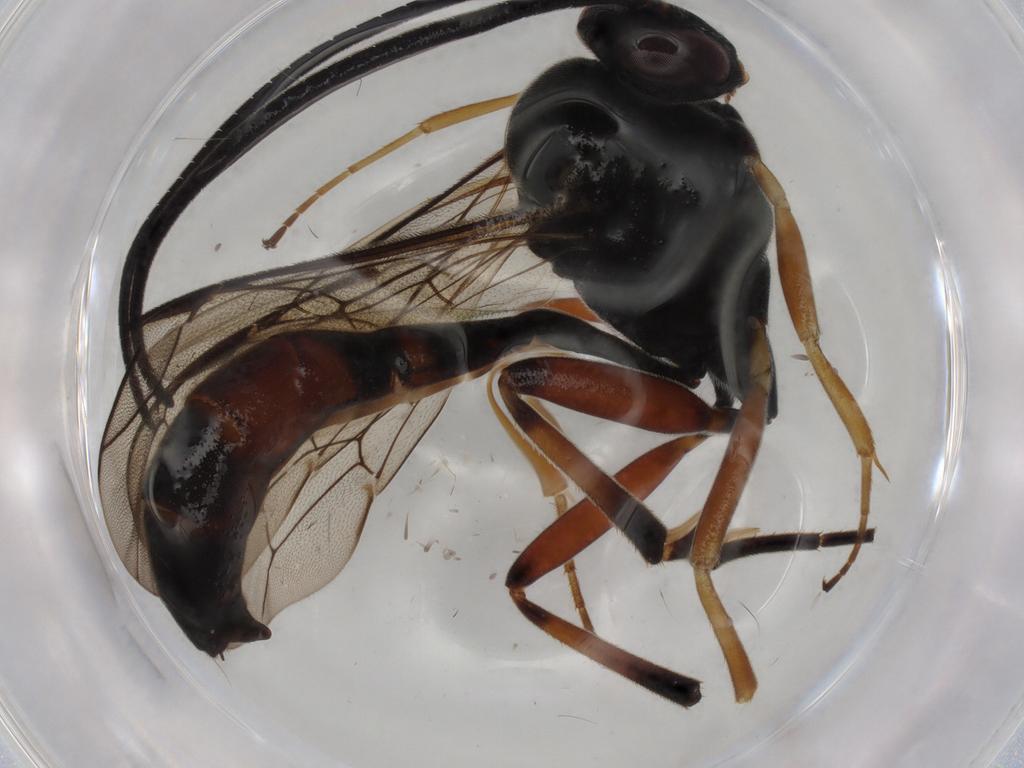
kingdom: Animalia
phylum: Arthropoda
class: Insecta
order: Hymenoptera
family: Ichneumonidae
